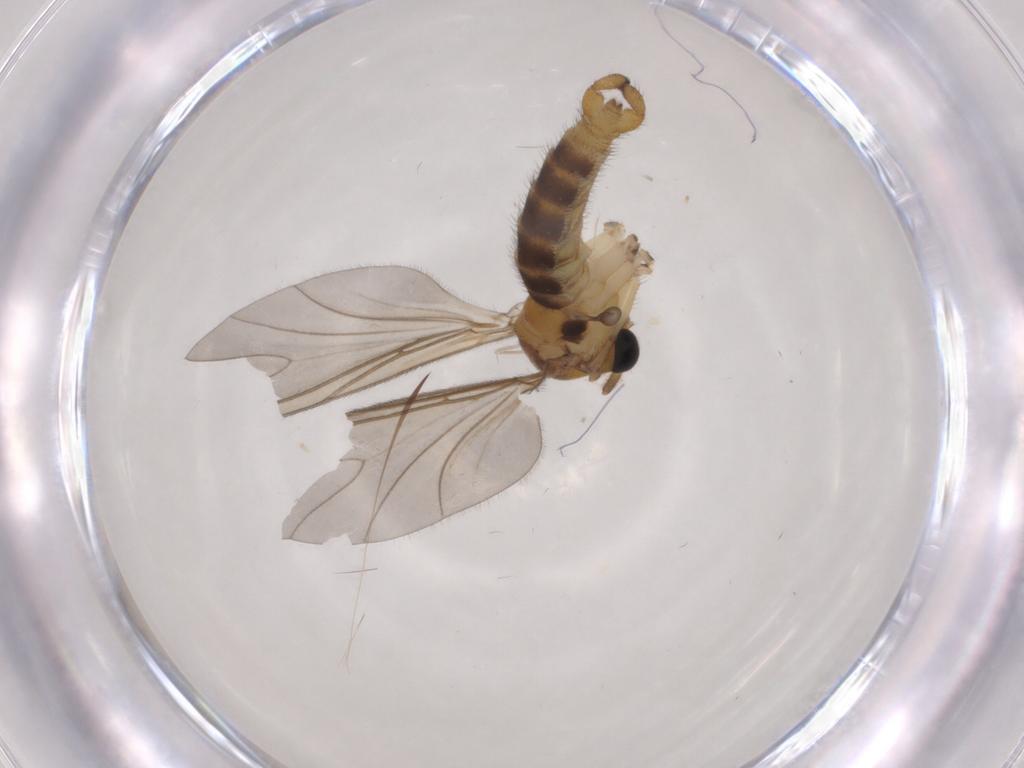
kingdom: Animalia
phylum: Arthropoda
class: Insecta
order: Diptera
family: Sciaridae
